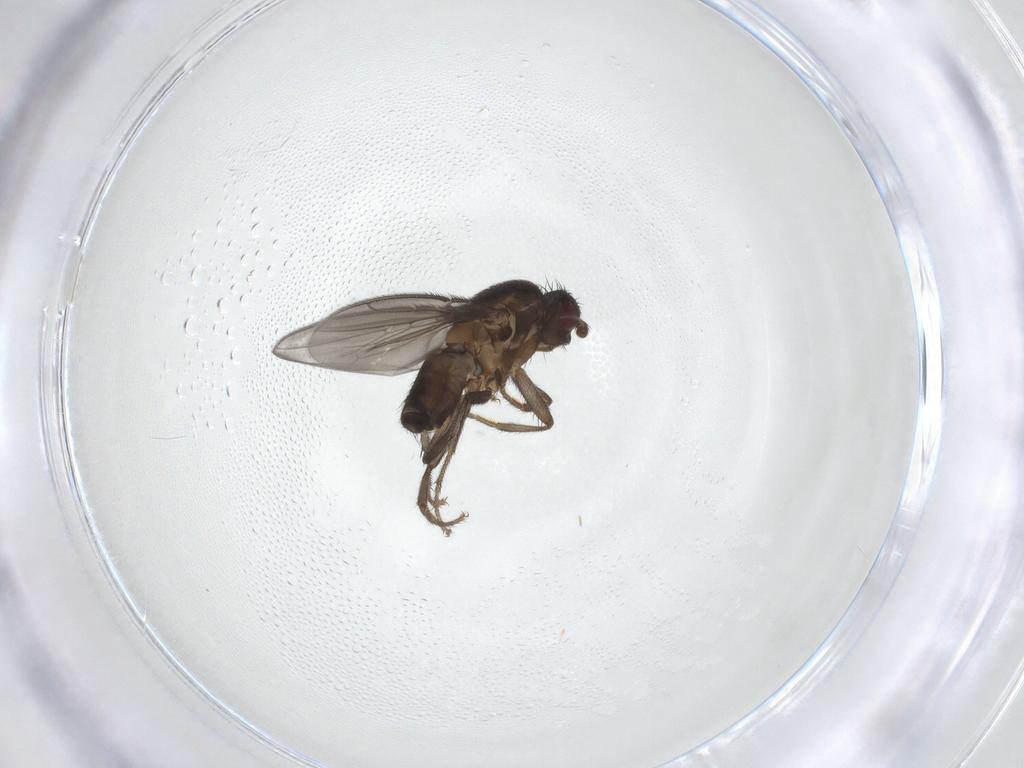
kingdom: Animalia
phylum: Arthropoda
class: Insecta
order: Diptera
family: Sphaeroceridae
